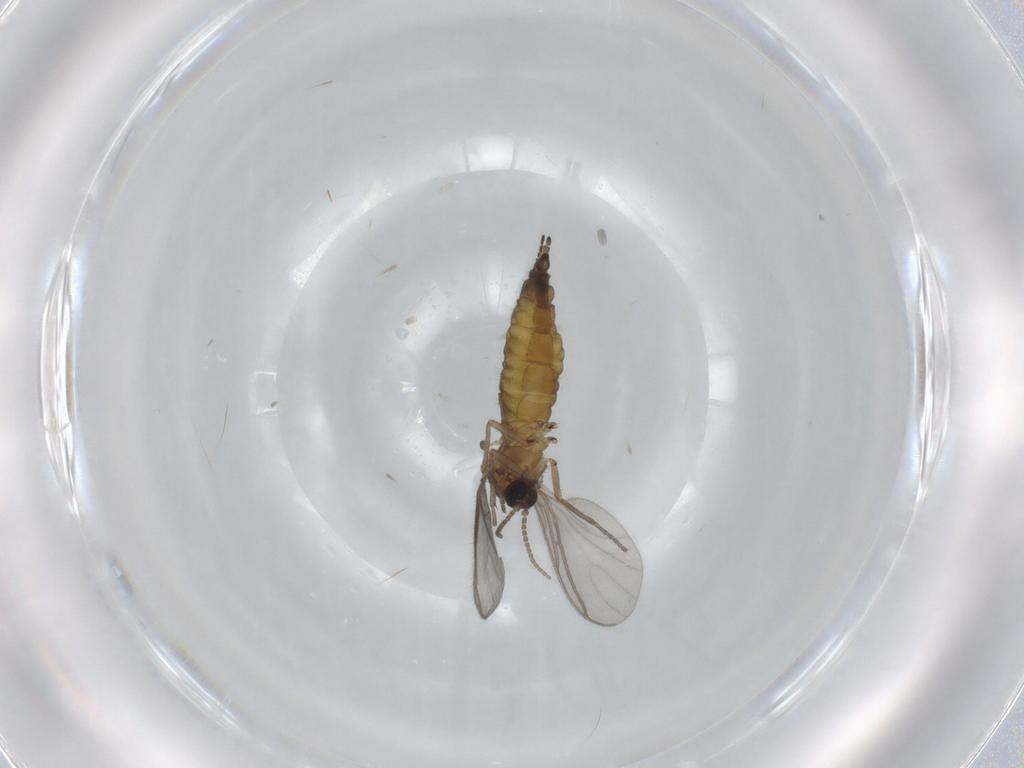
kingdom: Animalia
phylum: Arthropoda
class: Insecta
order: Diptera
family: Sciaridae
